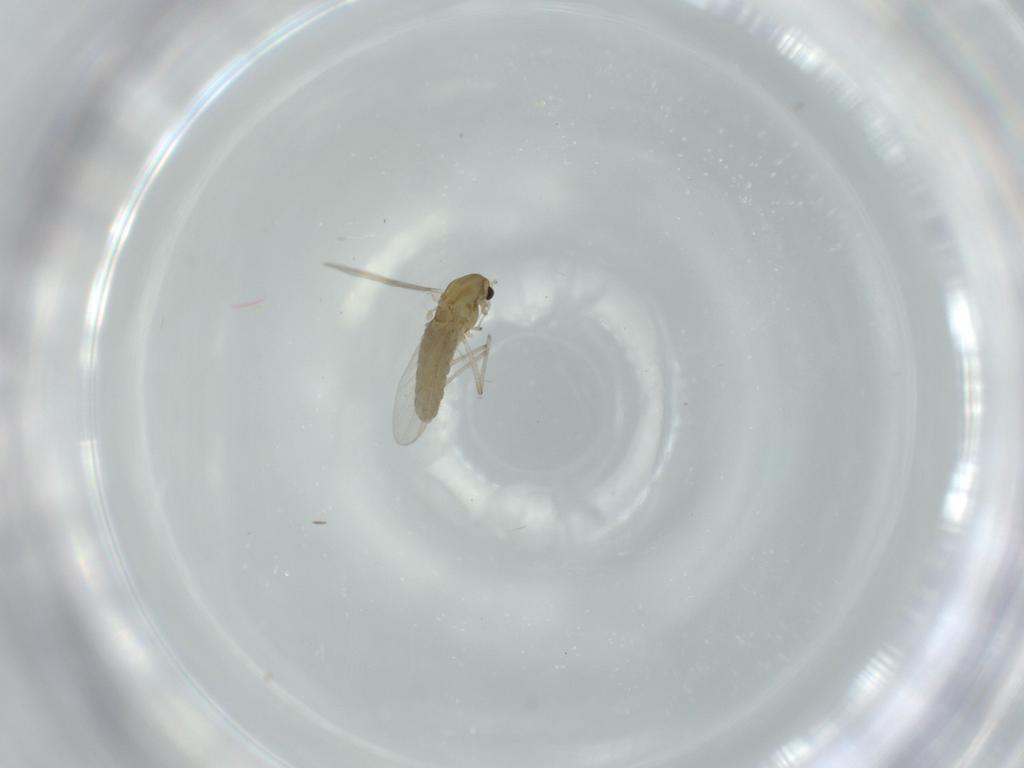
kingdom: Animalia
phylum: Arthropoda
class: Insecta
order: Diptera
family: Chironomidae
